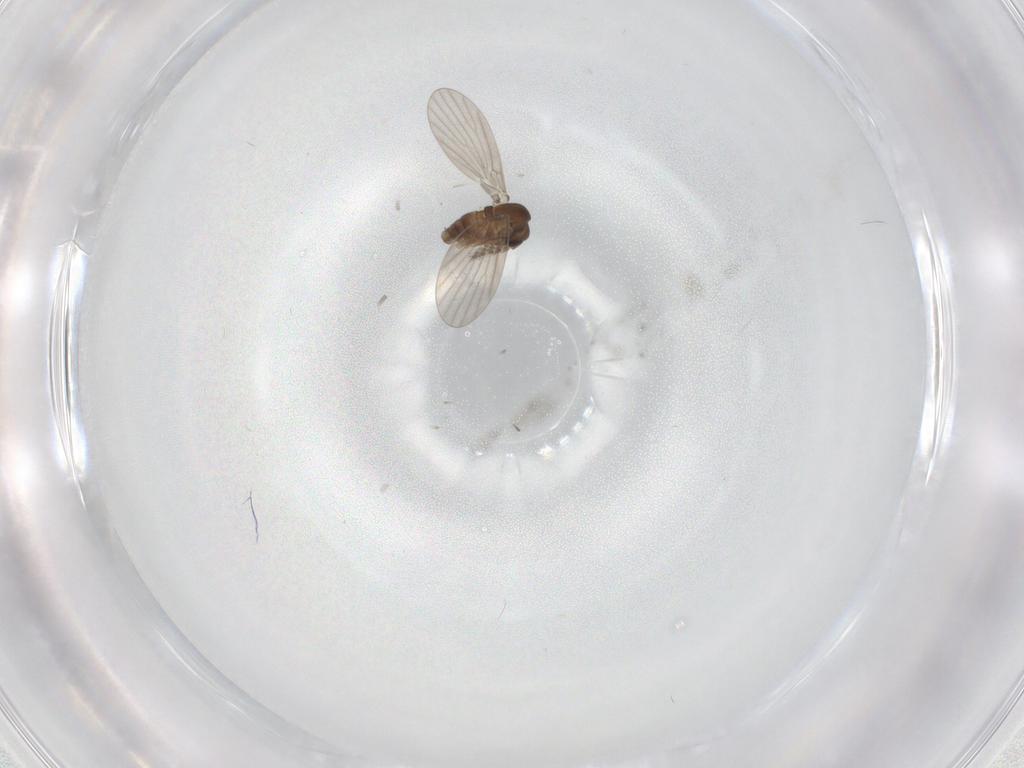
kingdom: Animalia
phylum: Arthropoda
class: Insecta
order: Diptera
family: Psychodidae
